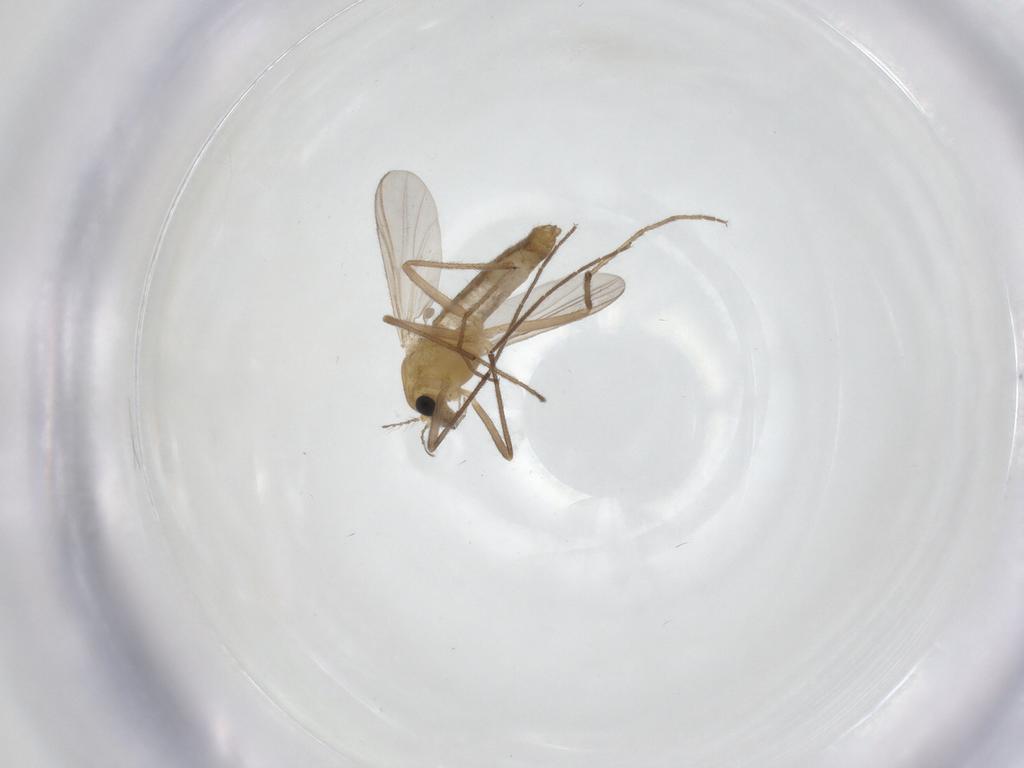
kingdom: Animalia
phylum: Arthropoda
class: Insecta
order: Diptera
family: Chironomidae
